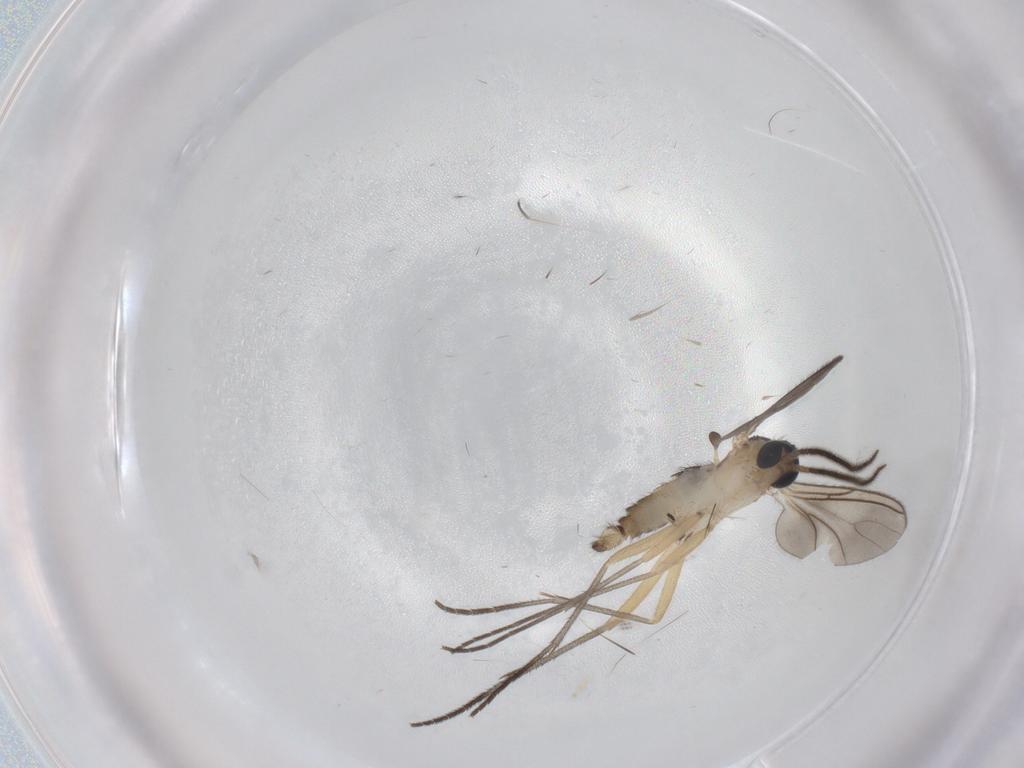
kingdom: Animalia
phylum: Arthropoda
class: Insecta
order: Diptera
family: Sciaridae
